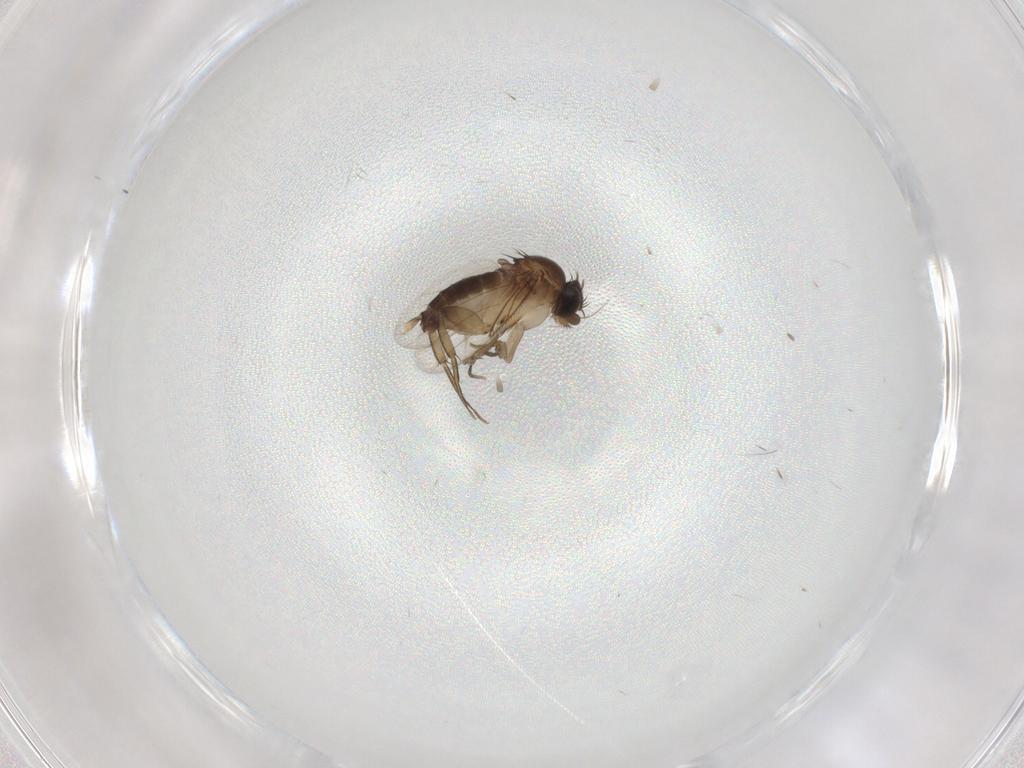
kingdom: Animalia
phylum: Arthropoda
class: Insecta
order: Diptera
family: Phoridae
